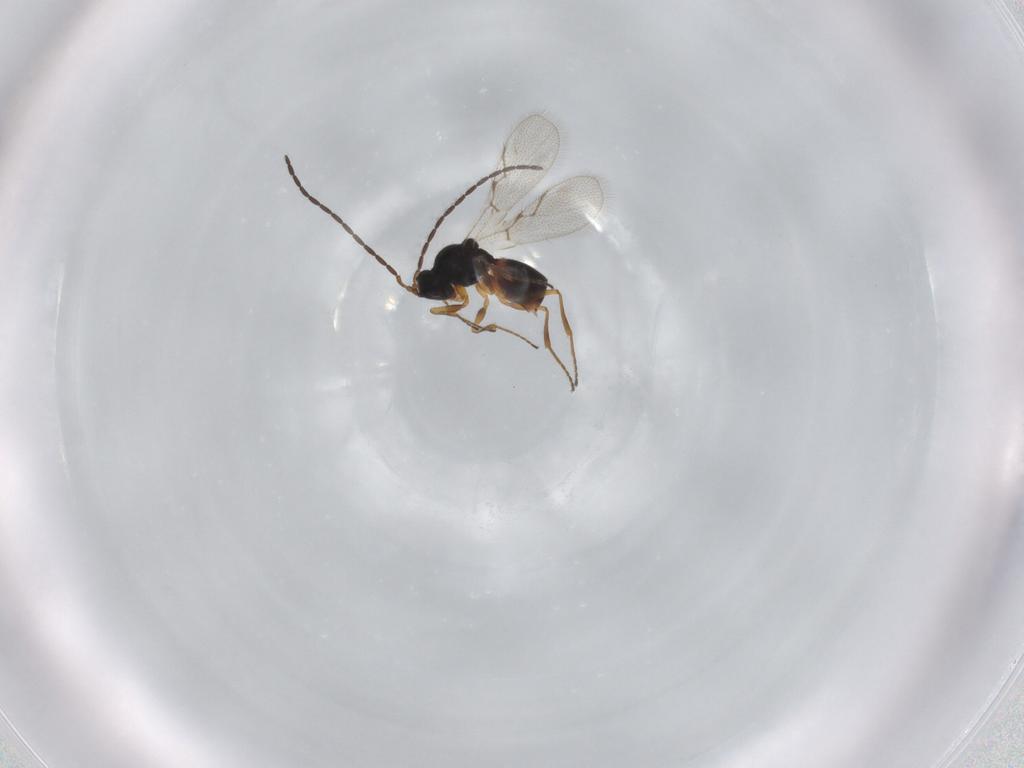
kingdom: Animalia
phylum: Arthropoda
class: Insecta
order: Hymenoptera
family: Figitidae
